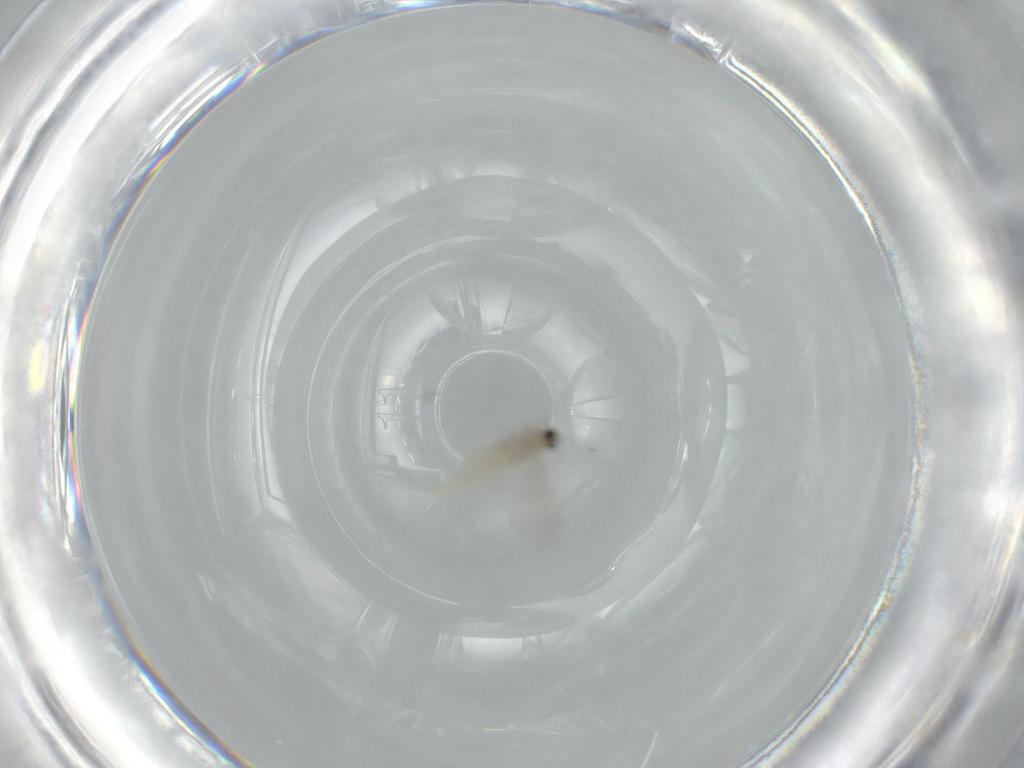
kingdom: Animalia
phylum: Arthropoda
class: Insecta
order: Diptera
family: Cecidomyiidae
